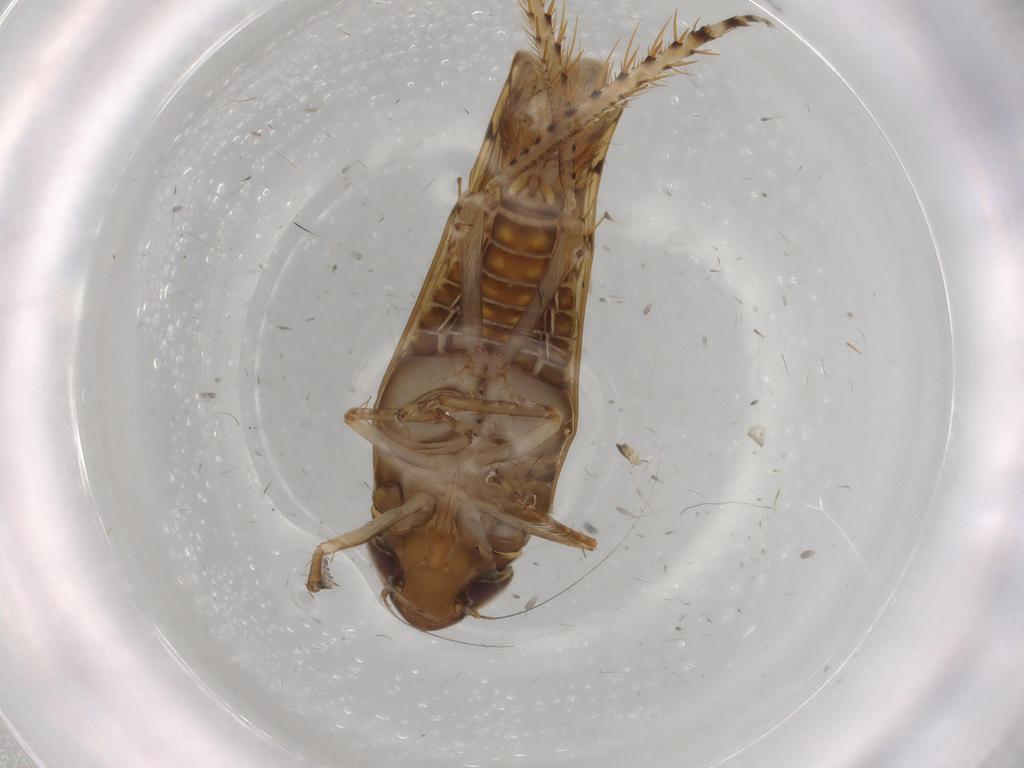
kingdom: Animalia
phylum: Arthropoda
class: Insecta
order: Hemiptera
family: Cicadellidae
